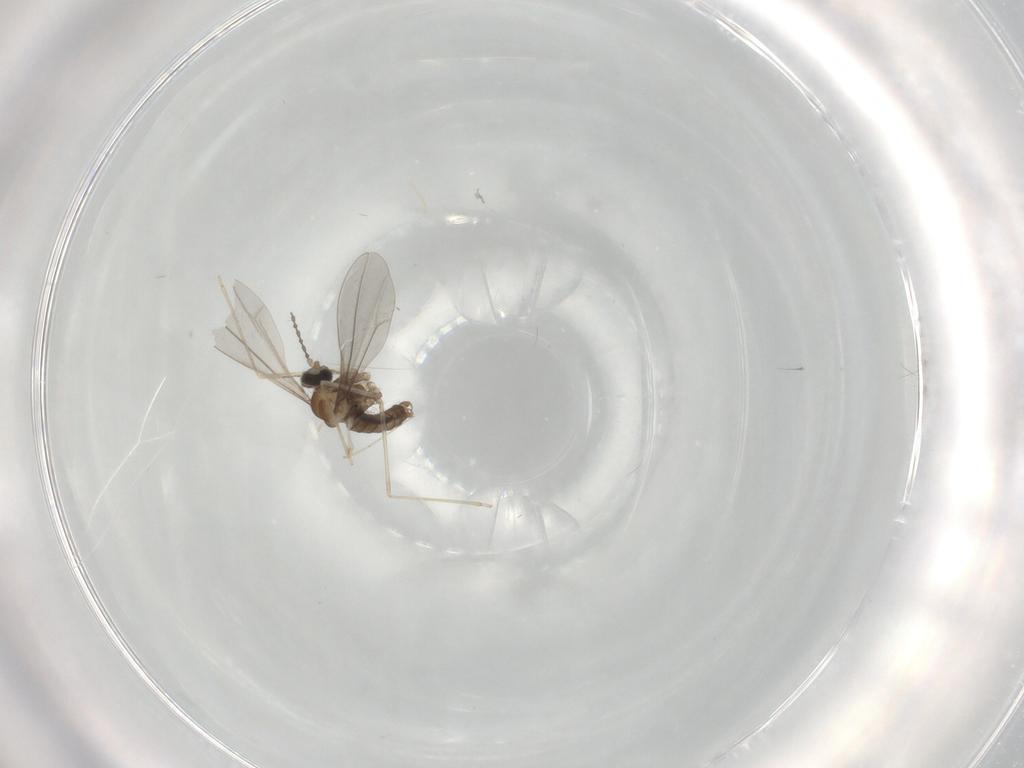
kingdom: Animalia
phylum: Arthropoda
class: Insecta
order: Diptera
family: Cecidomyiidae
